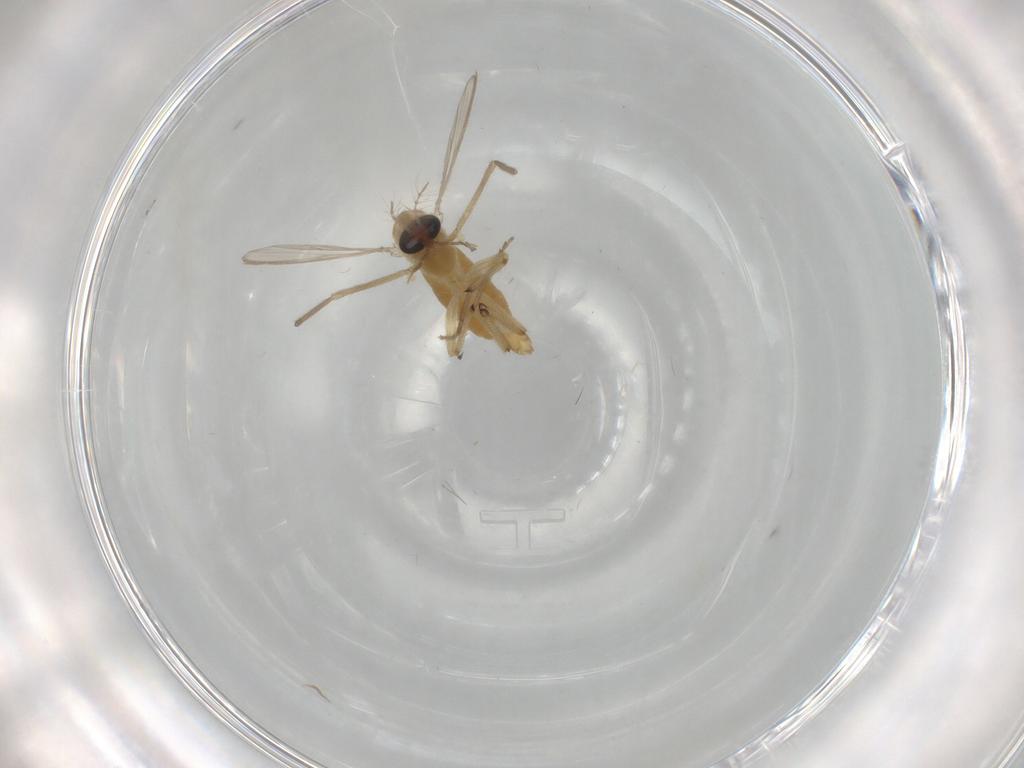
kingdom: Animalia
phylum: Arthropoda
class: Insecta
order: Diptera
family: Chironomidae
